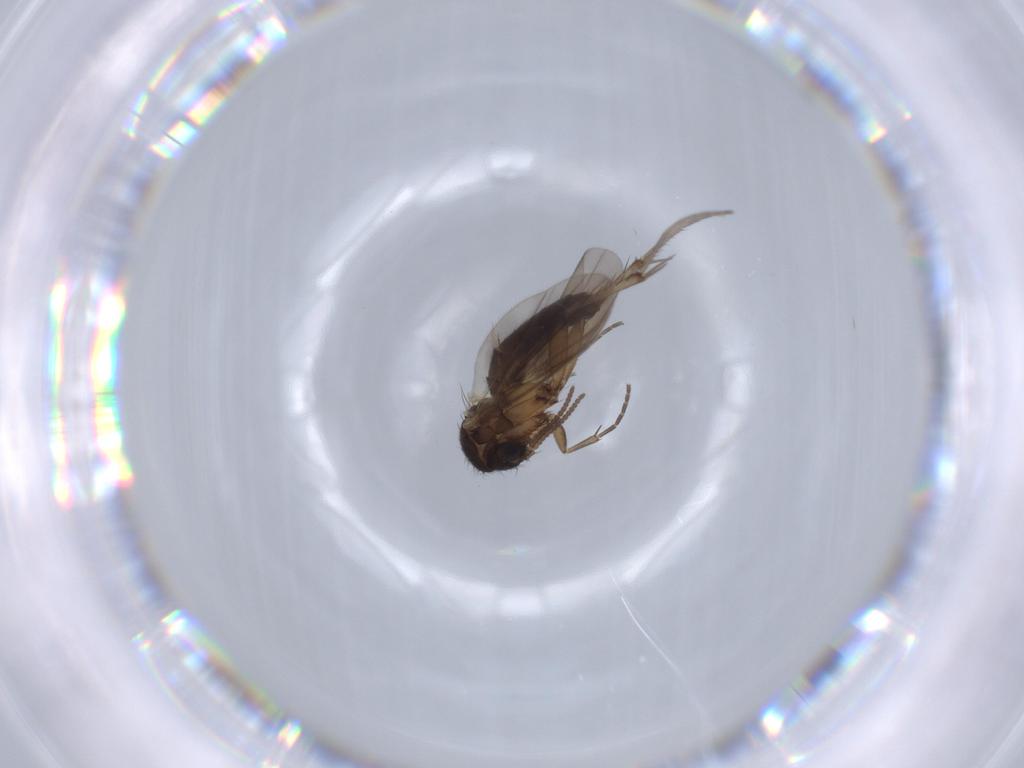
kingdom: Animalia
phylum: Arthropoda
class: Insecta
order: Diptera
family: Mycetophilidae
